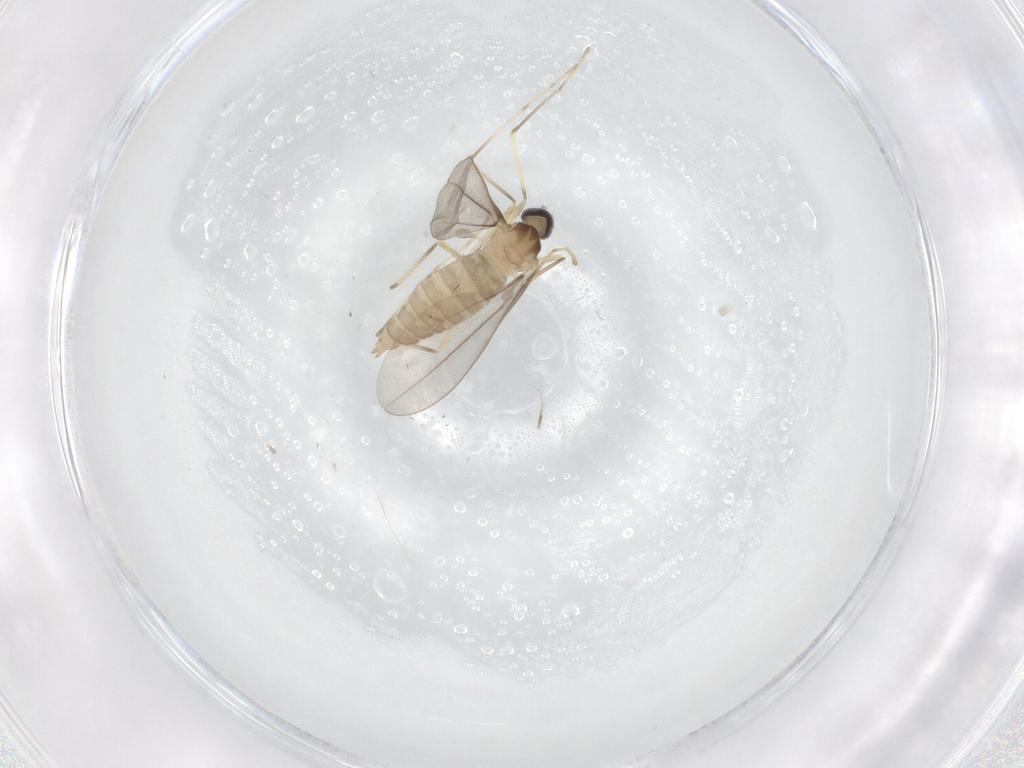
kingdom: Animalia
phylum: Arthropoda
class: Insecta
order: Diptera
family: Cecidomyiidae
